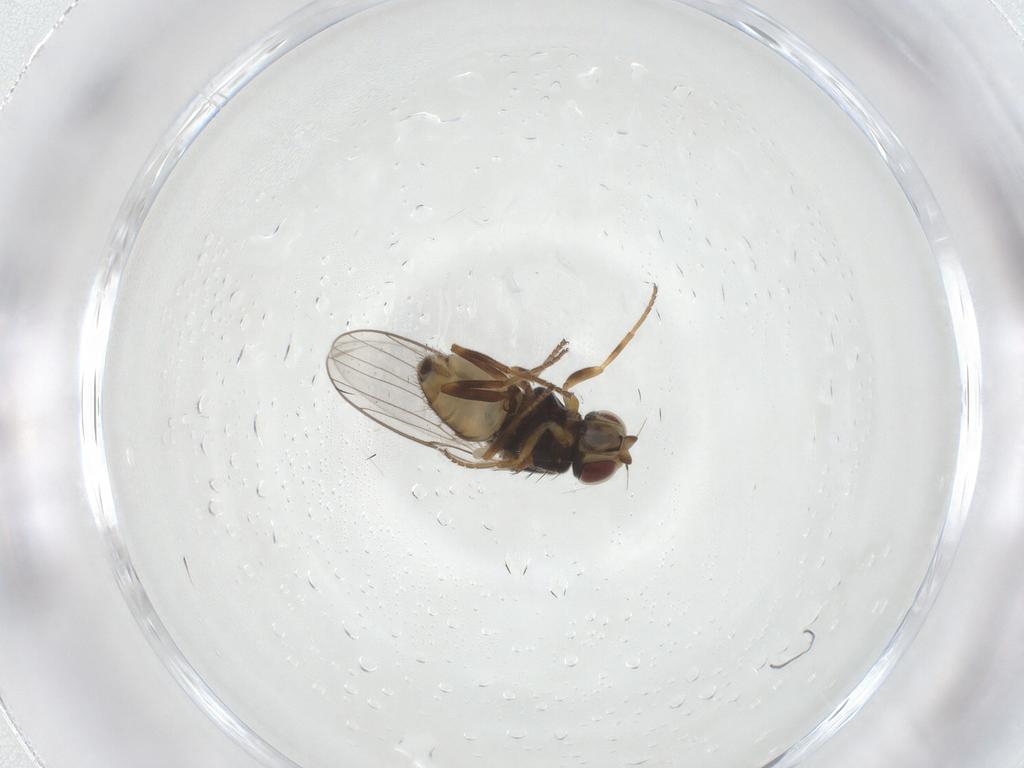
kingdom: Animalia
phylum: Arthropoda
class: Insecta
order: Diptera
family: Chloropidae
